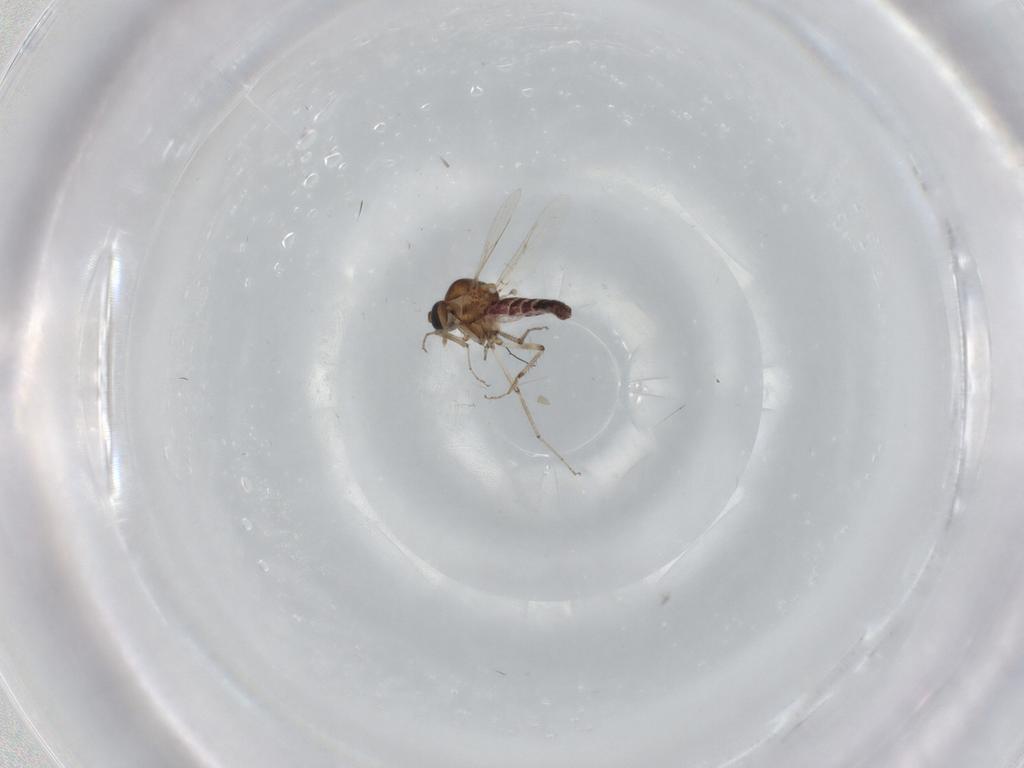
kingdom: Animalia
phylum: Arthropoda
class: Insecta
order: Diptera
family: Ceratopogonidae
